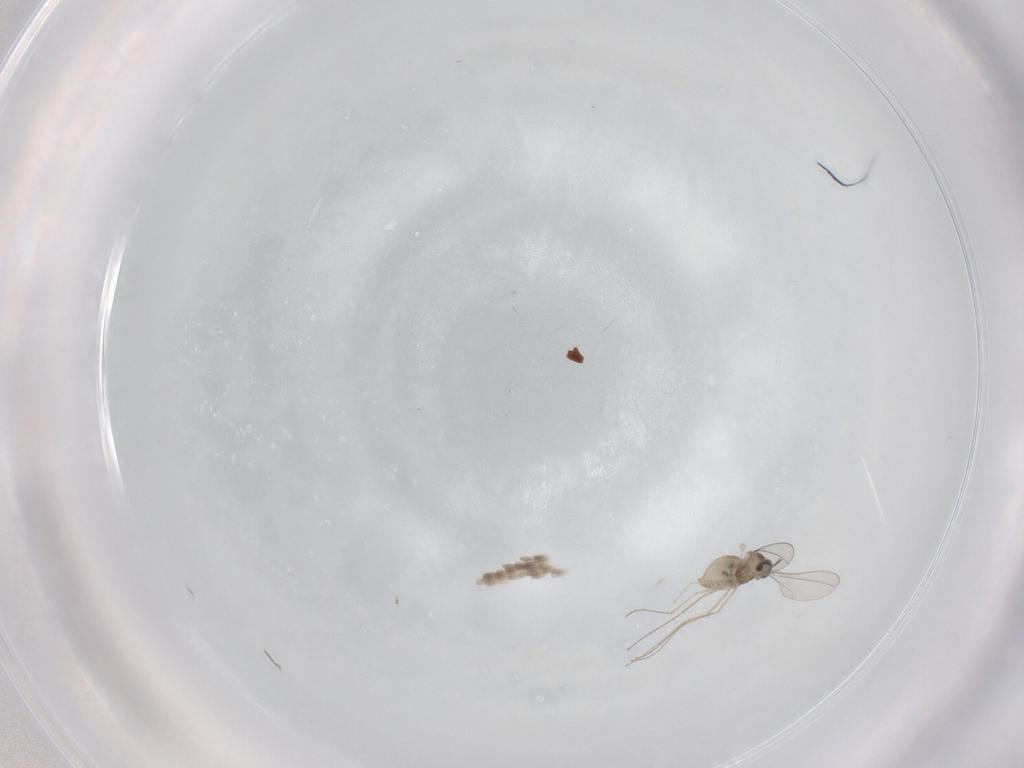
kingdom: Animalia
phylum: Arthropoda
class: Insecta
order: Diptera
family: Cecidomyiidae
